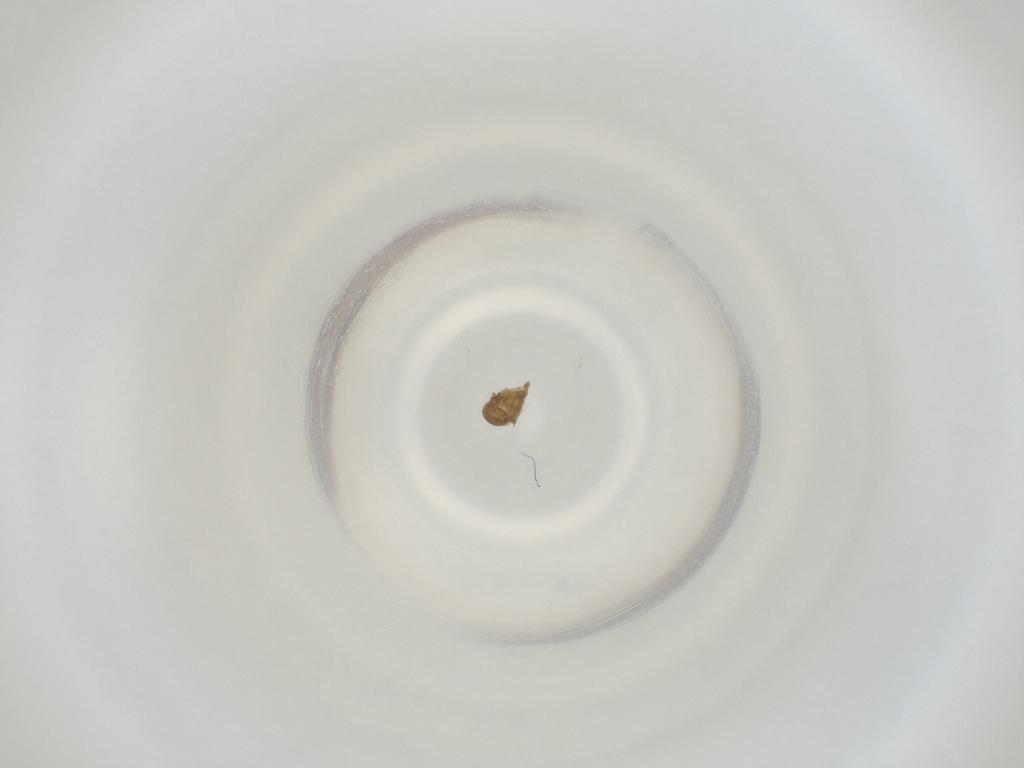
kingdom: Animalia
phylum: Arthropoda
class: Insecta
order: Diptera
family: Cecidomyiidae
